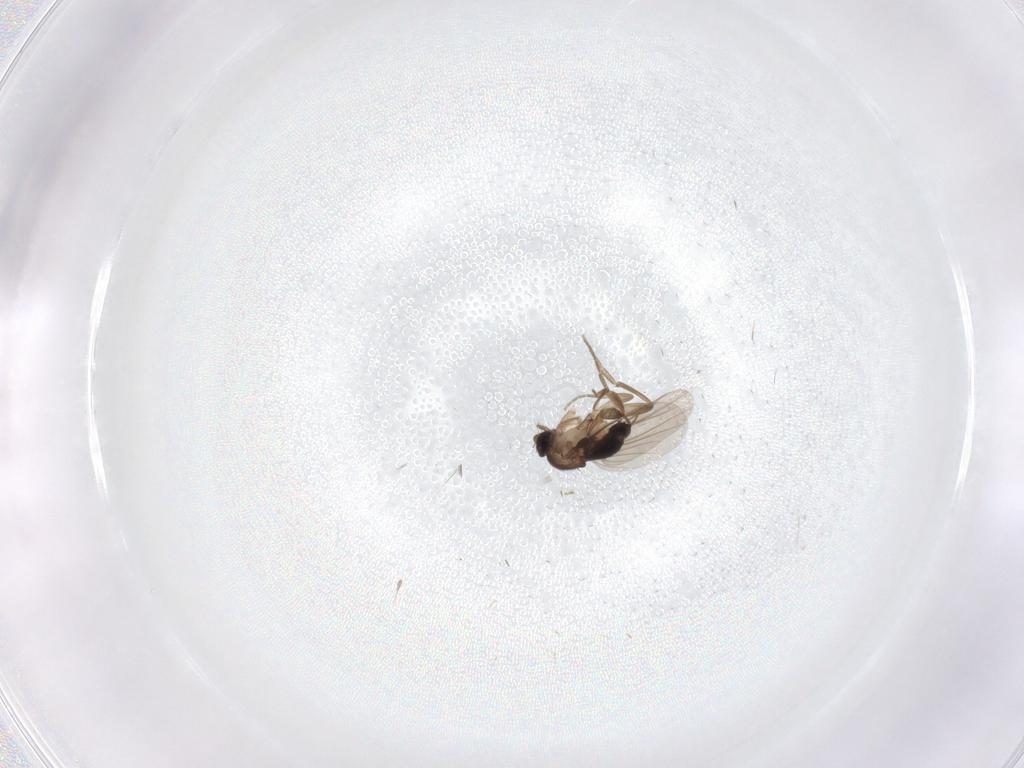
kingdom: Animalia
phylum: Arthropoda
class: Insecta
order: Diptera
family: Phoridae
